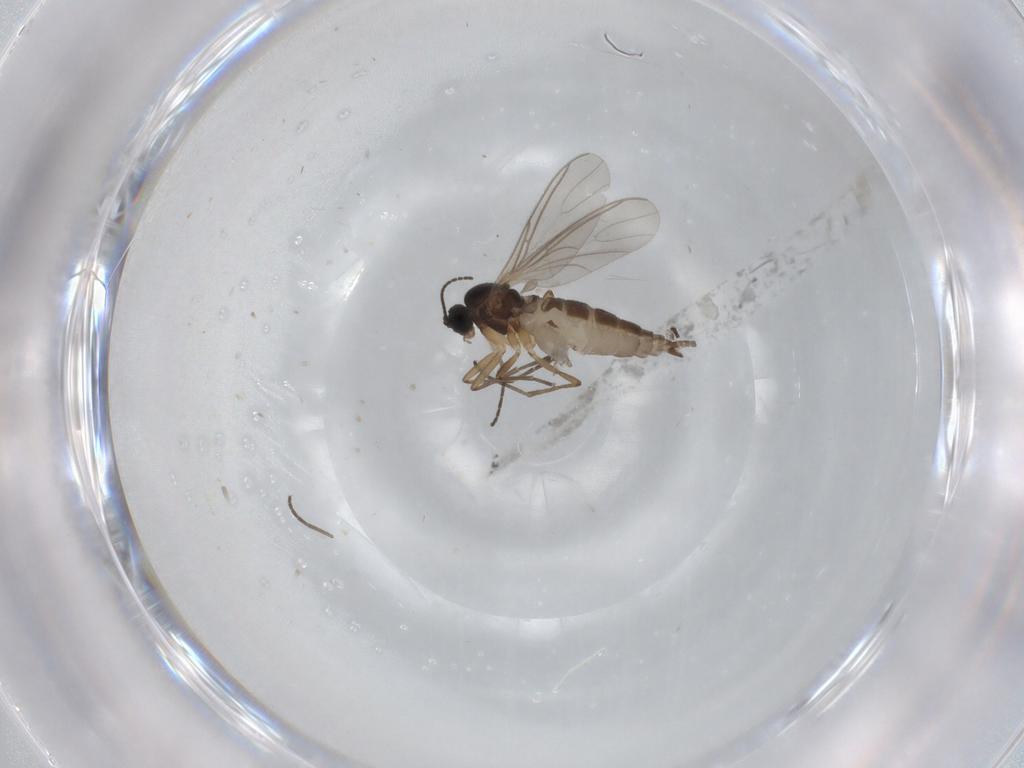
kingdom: Animalia
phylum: Arthropoda
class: Insecta
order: Diptera
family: Sciaridae
